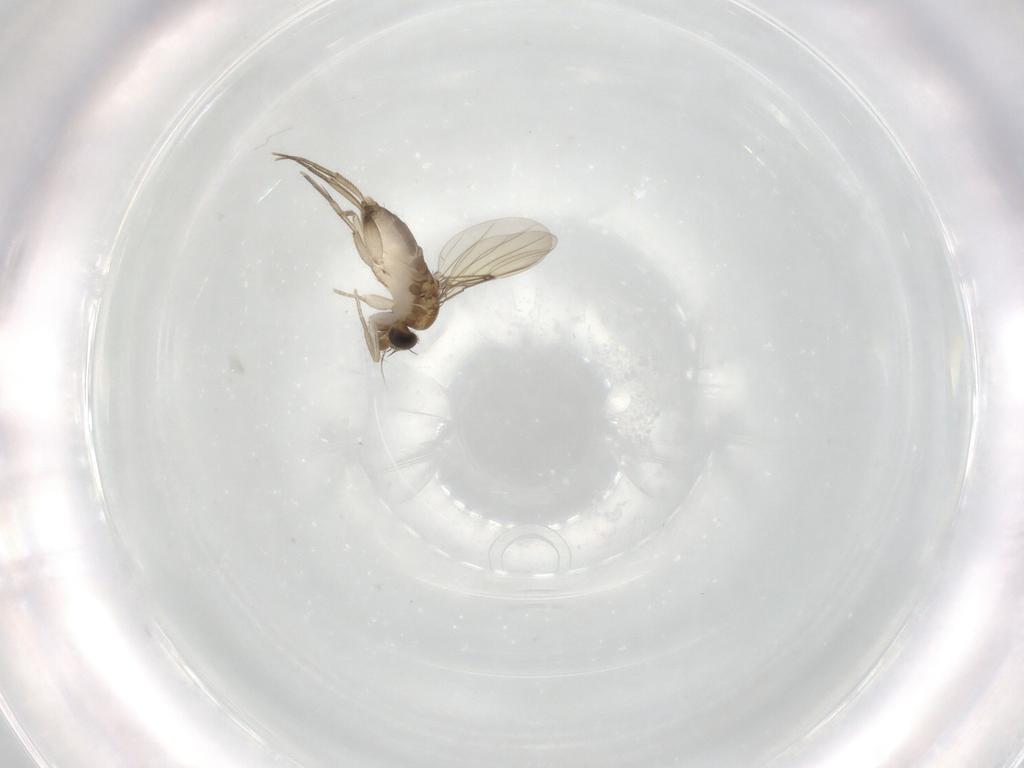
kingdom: Animalia
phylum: Arthropoda
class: Insecta
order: Diptera
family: Phoridae
